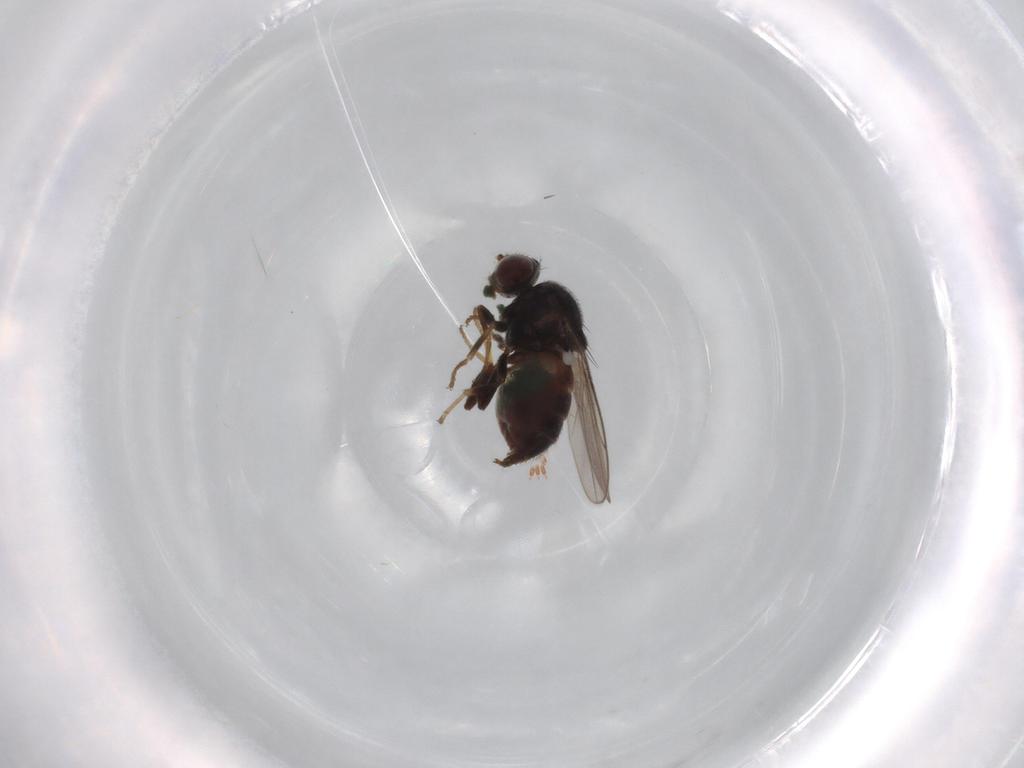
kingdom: Animalia
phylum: Arthropoda
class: Insecta
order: Diptera
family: Chloropidae
